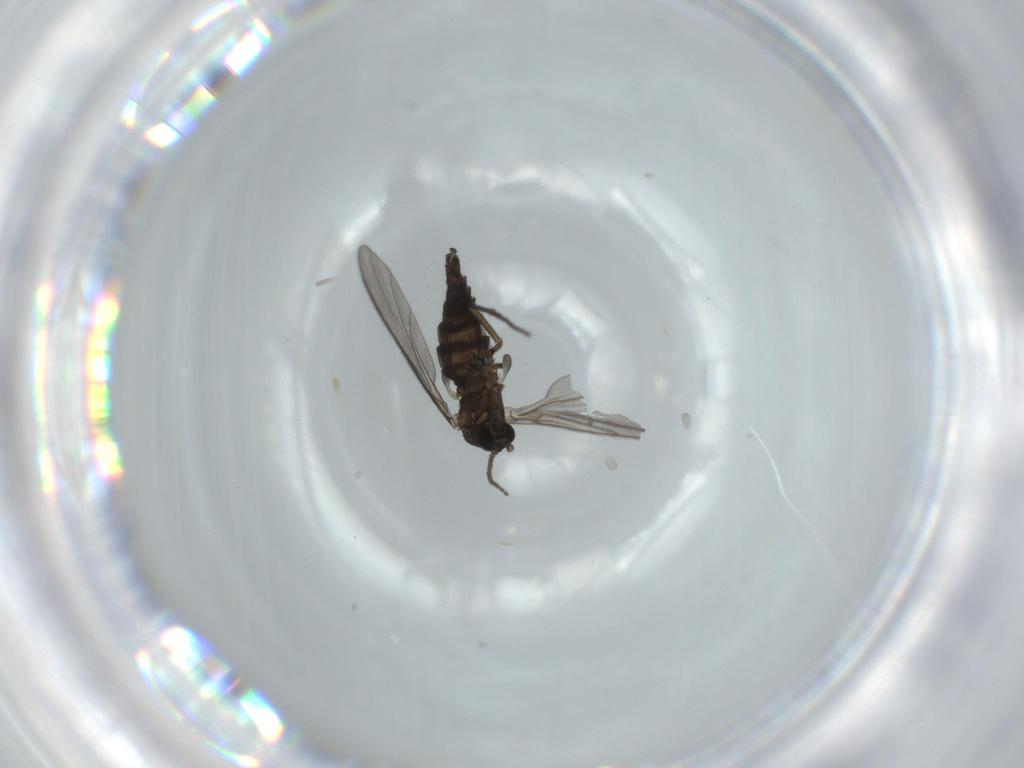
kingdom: Animalia
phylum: Arthropoda
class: Insecta
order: Diptera
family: Sciaridae
